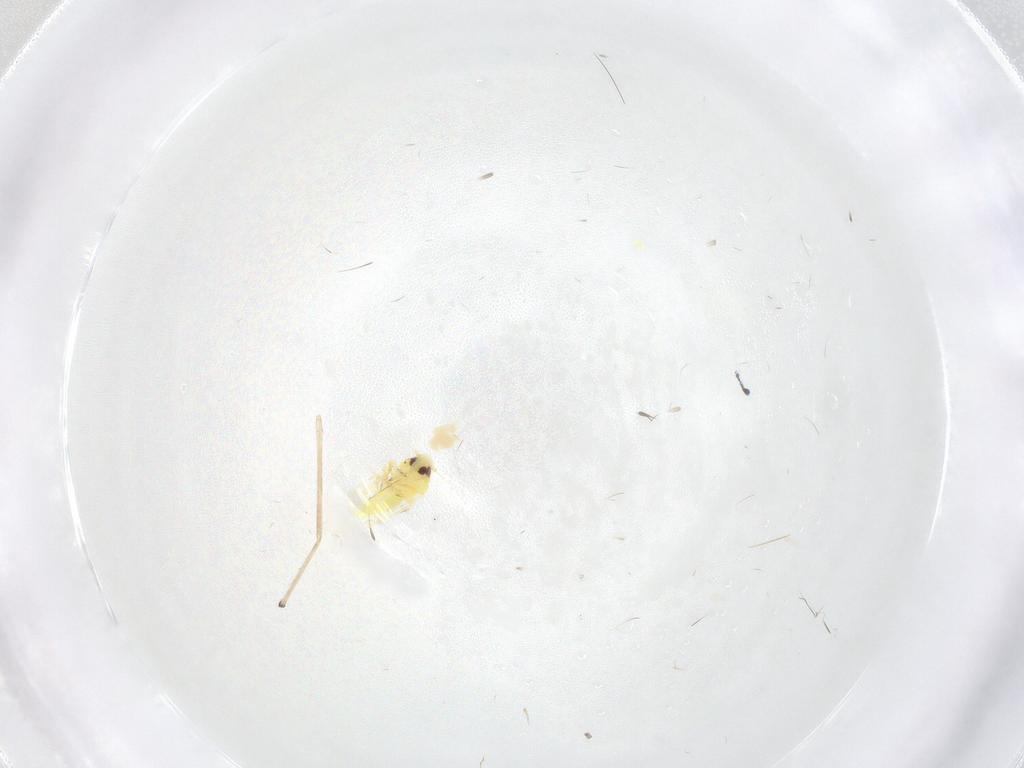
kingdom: Animalia
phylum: Arthropoda
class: Insecta
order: Hemiptera
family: Aleyrodidae
